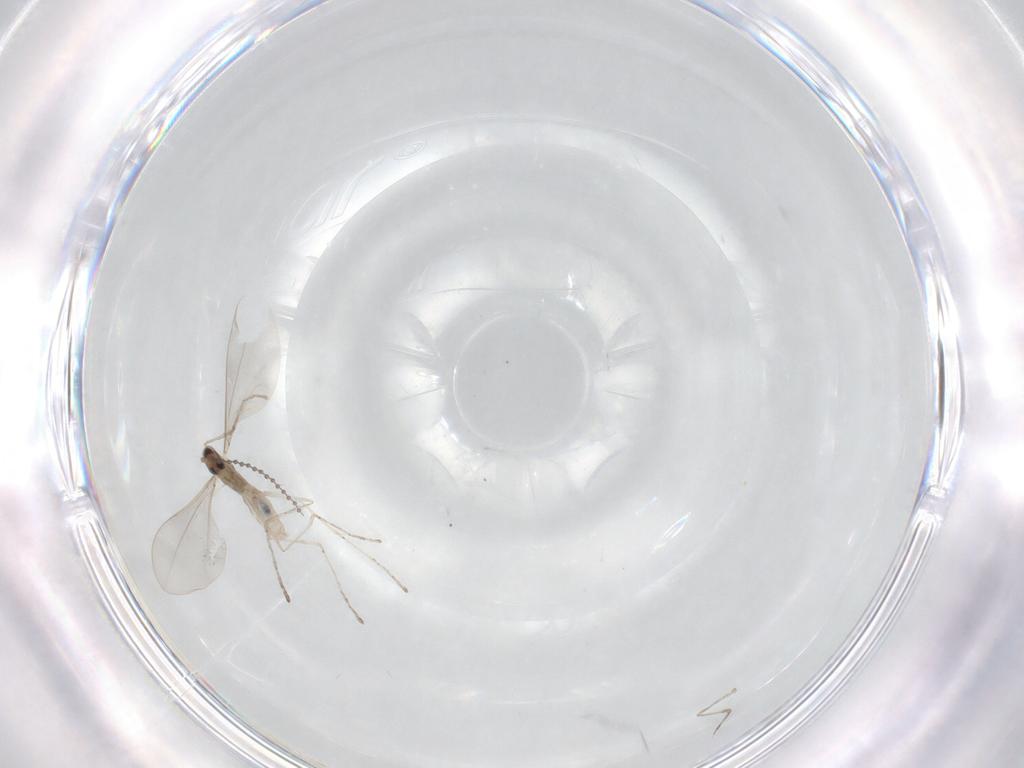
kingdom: Animalia
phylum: Arthropoda
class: Insecta
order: Diptera
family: Cecidomyiidae
